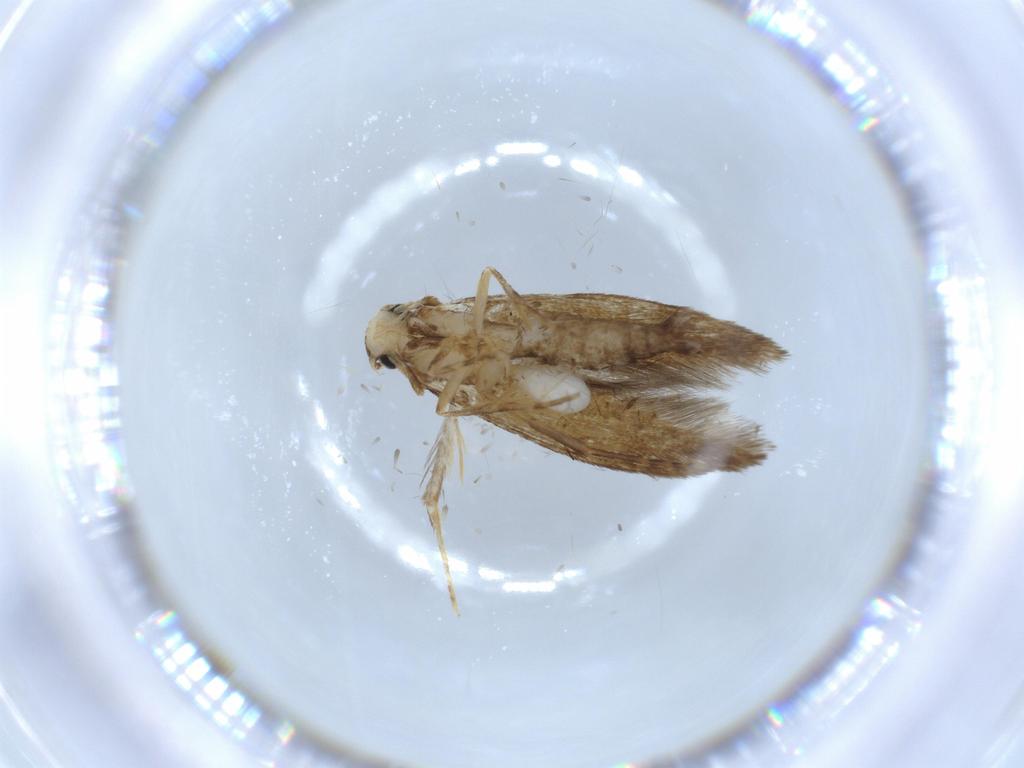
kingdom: Animalia
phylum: Arthropoda
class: Insecta
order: Lepidoptera
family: Tineidae
